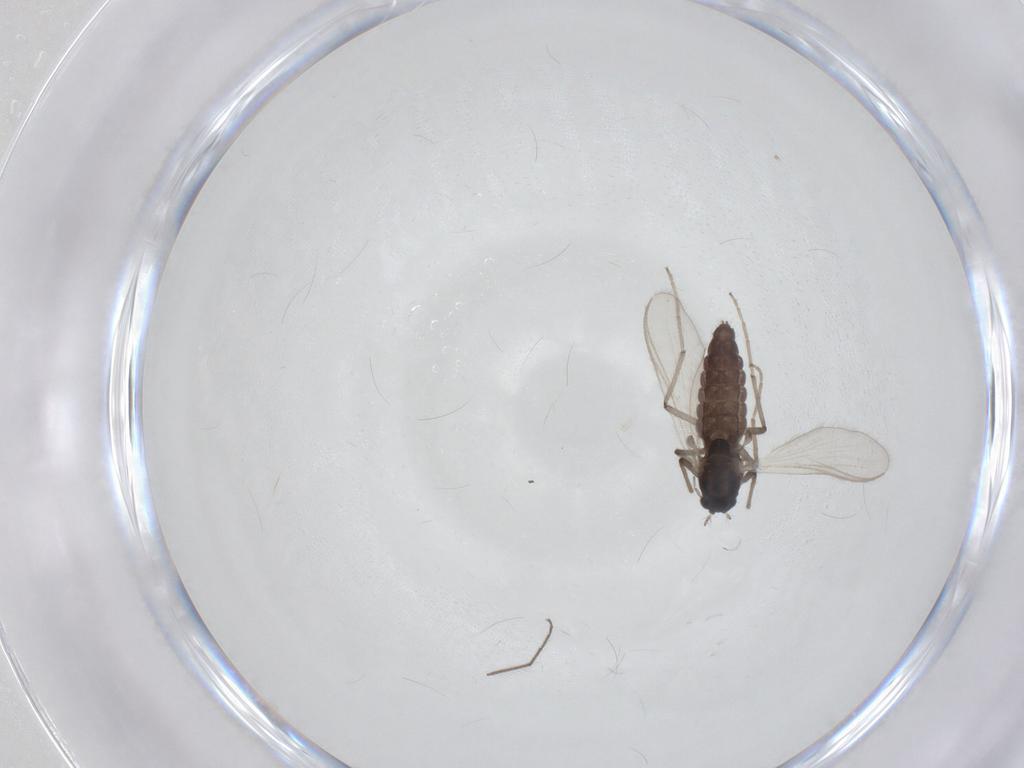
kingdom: Animalia
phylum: Arthropoda
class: Insecta
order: Diptera
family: Chironomidae
